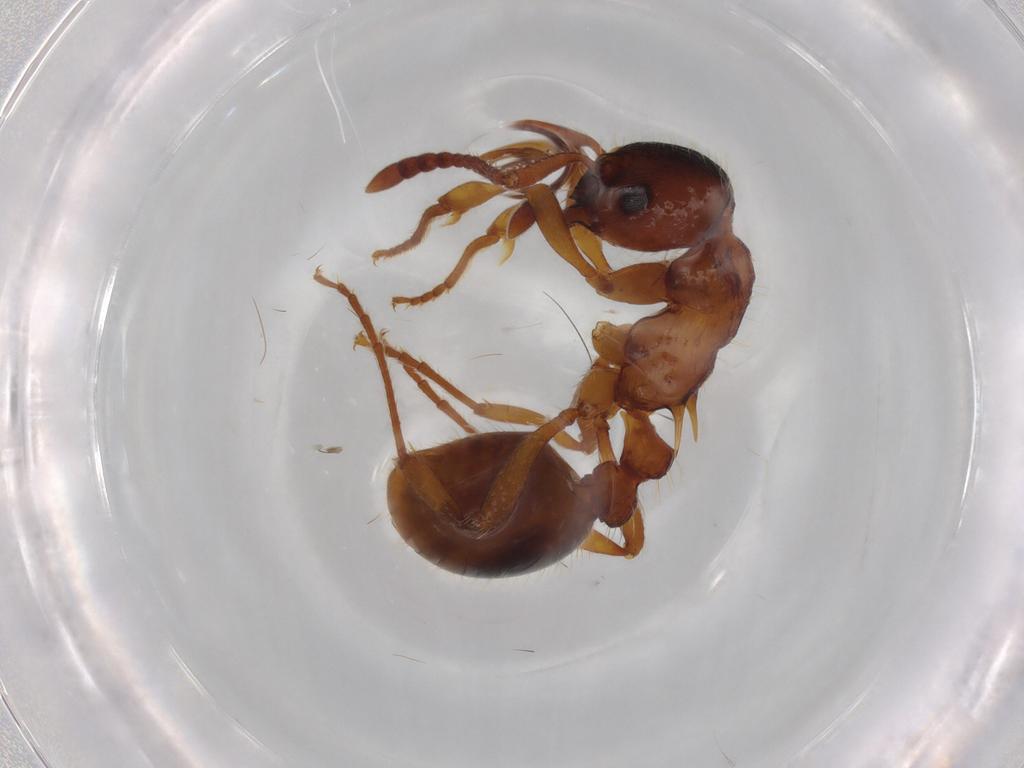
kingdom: Animalia
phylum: Arthropoda
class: Insecta
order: Hymenoptera
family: Formicidae
